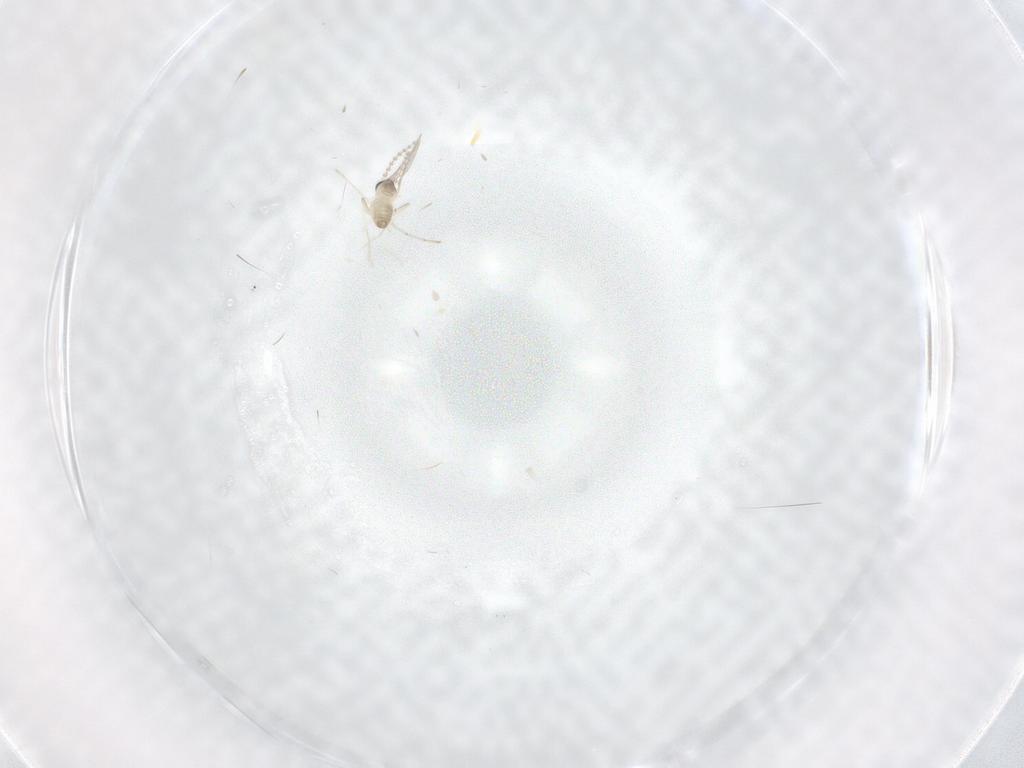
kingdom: Animalia
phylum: Arthropoda
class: Insecta
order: Diptera
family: Cecidomyiidae
